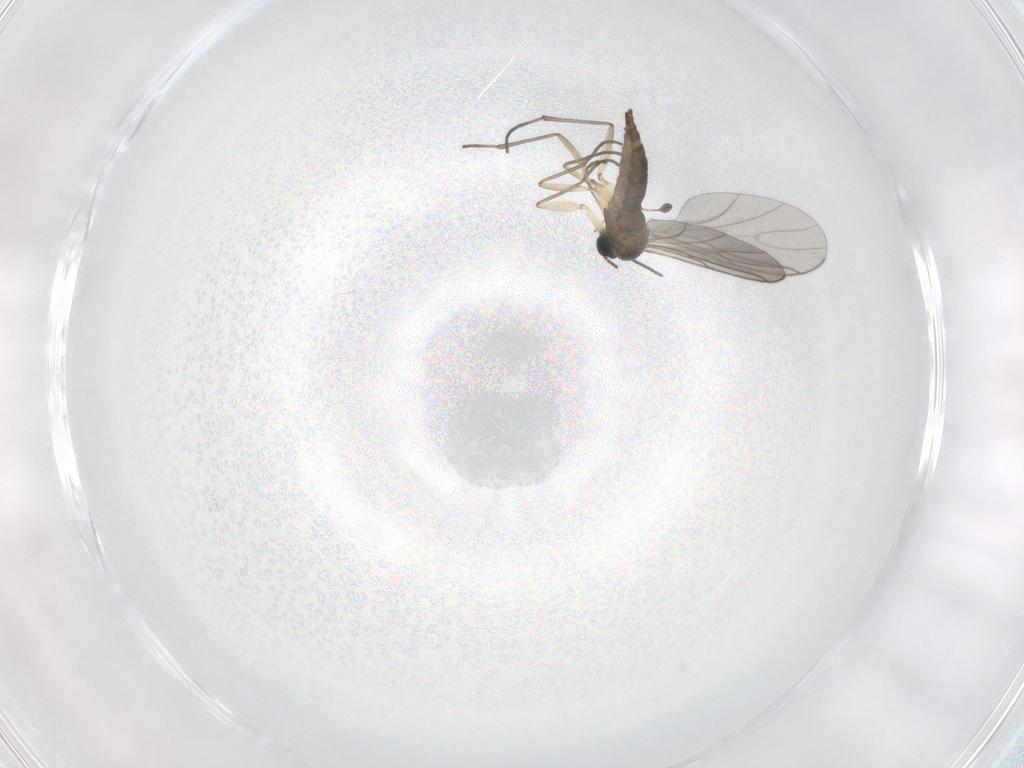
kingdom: Animalia
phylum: Arthropoda
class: Insecta
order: Diptera
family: Sciaridae
